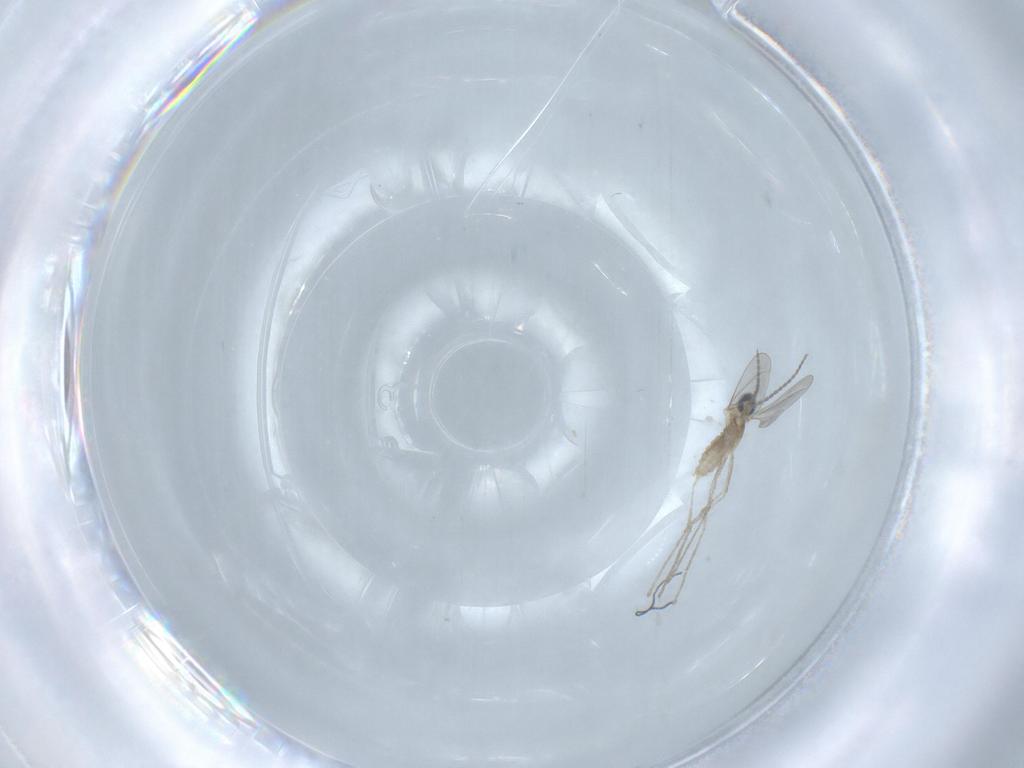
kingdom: Animalia
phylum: Arthropoda
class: Insecta
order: Diptera
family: Cecidomyiidae
